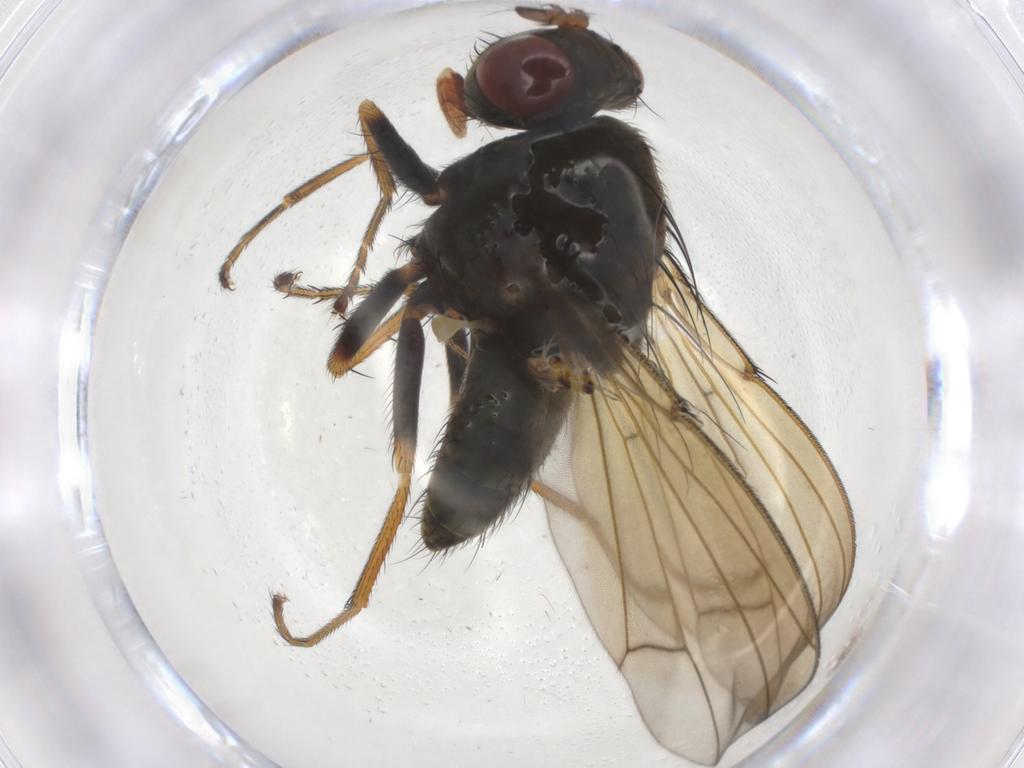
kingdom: Animalia
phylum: Arthropoda
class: Insecta
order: Diptera
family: Ephydridae
